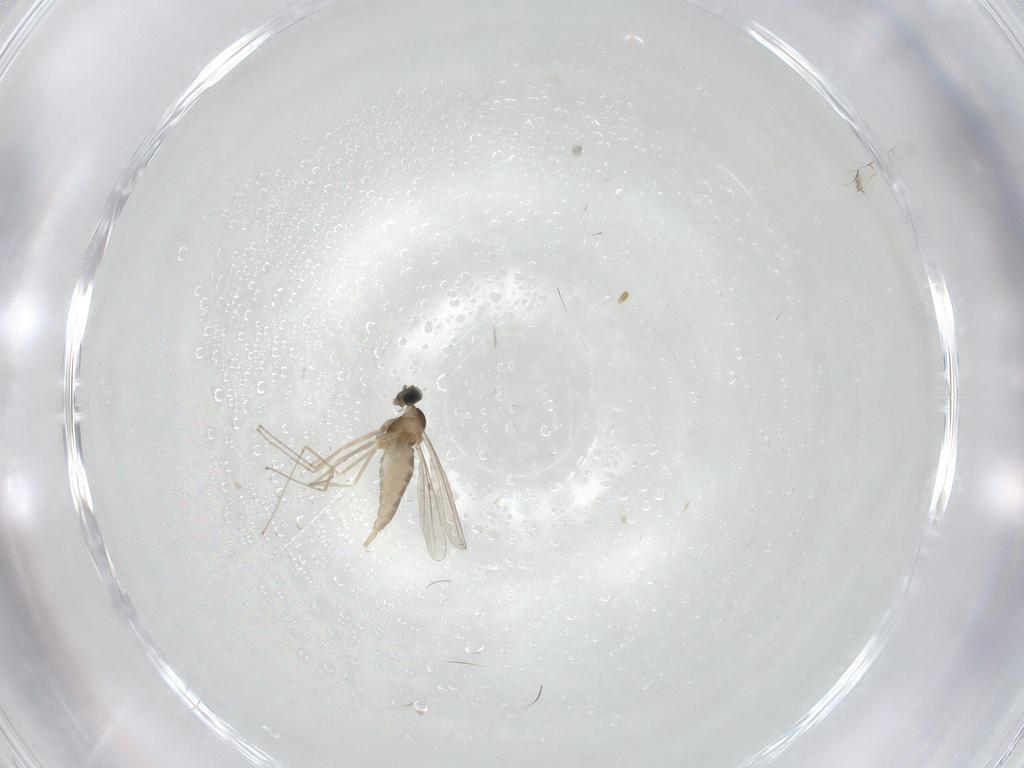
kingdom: Animalia
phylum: Arthropoda
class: Insecta
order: Diptera
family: Cecidomyiidae
